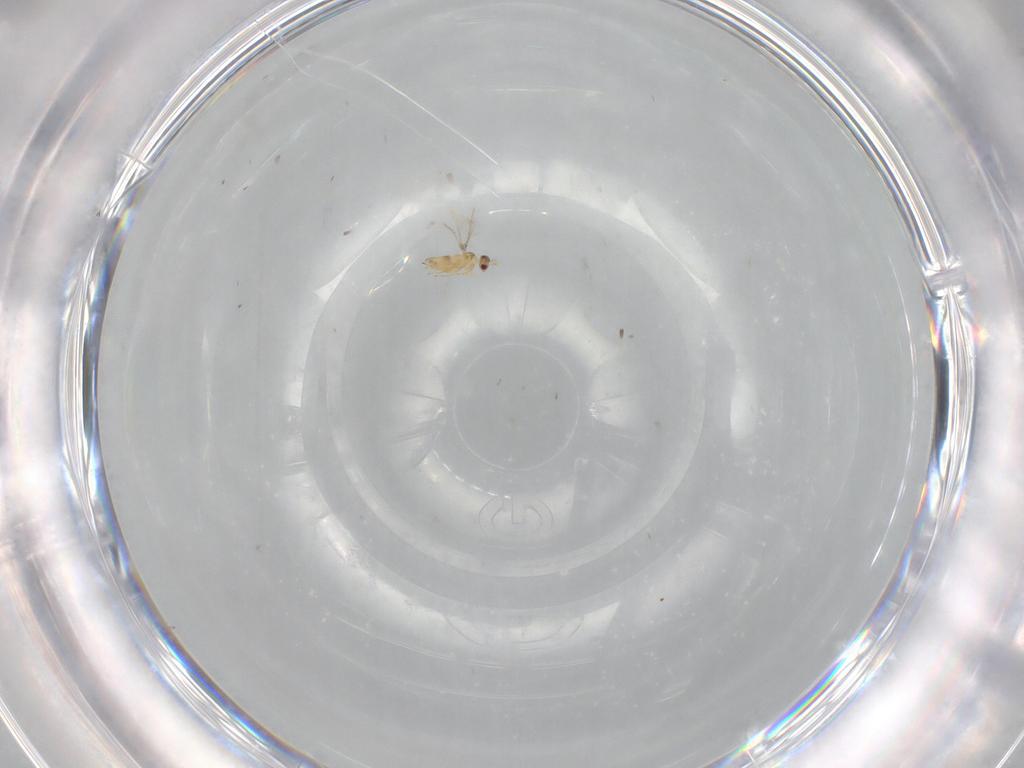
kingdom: Animalia
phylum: Arthropoda
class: Insecta
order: Hymenoptera
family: Mymaridae
